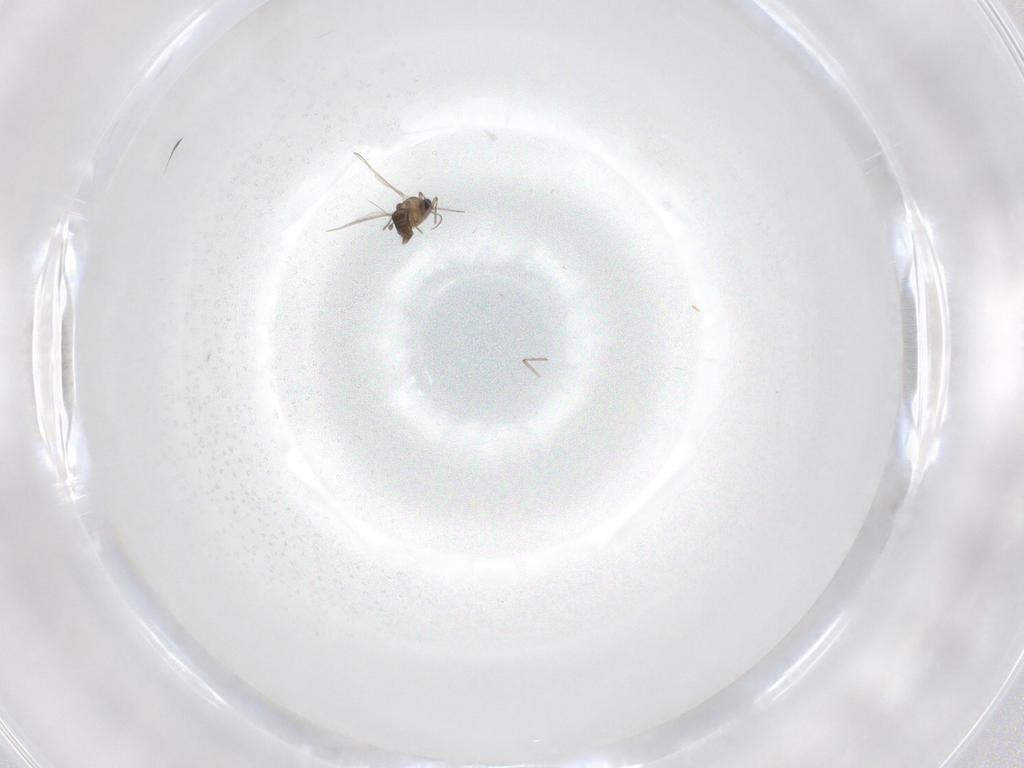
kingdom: Animalia
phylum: Arthropoda
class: Insecta
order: Diptera
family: Chironomidae
